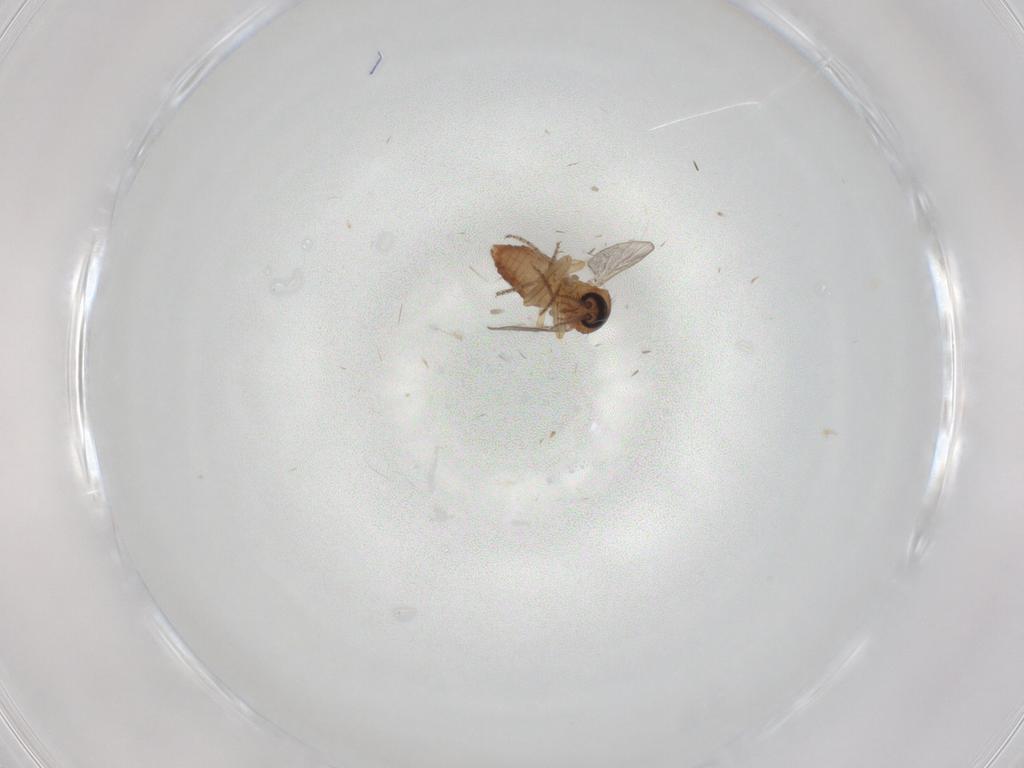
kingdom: Animalia
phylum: Arthropoda
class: Insecta
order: Diptera
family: Ceratopogonidae
